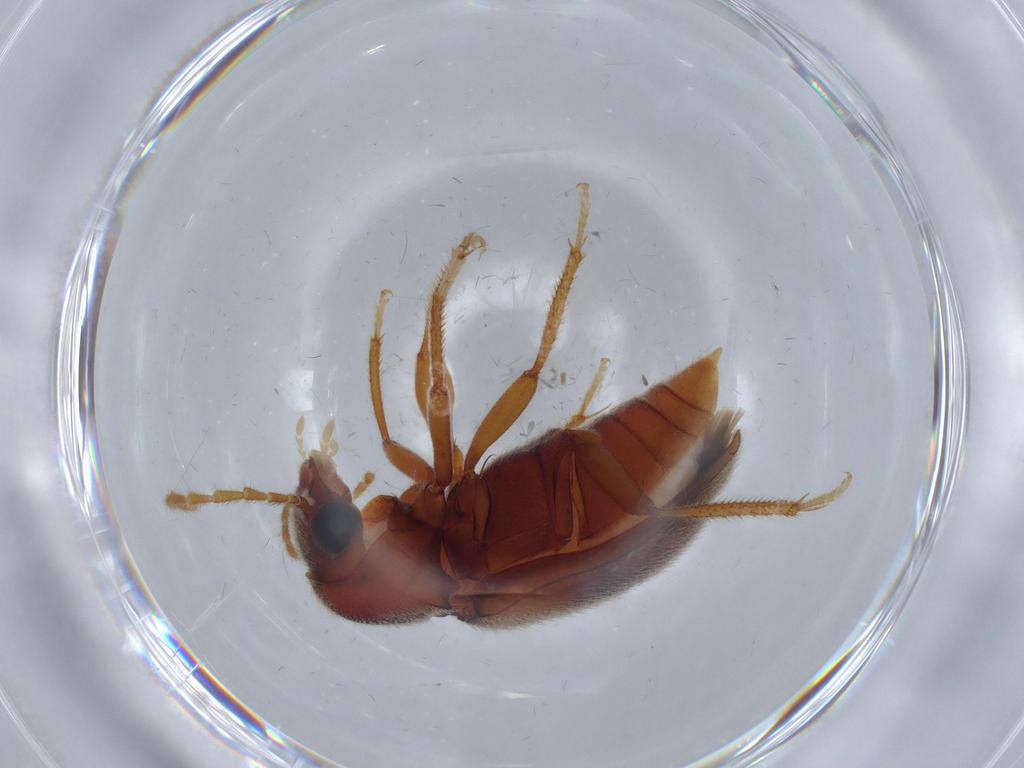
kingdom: Animalia
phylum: Arthropoda
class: Insecta
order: Coleoptera
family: Ptilodactylidae
